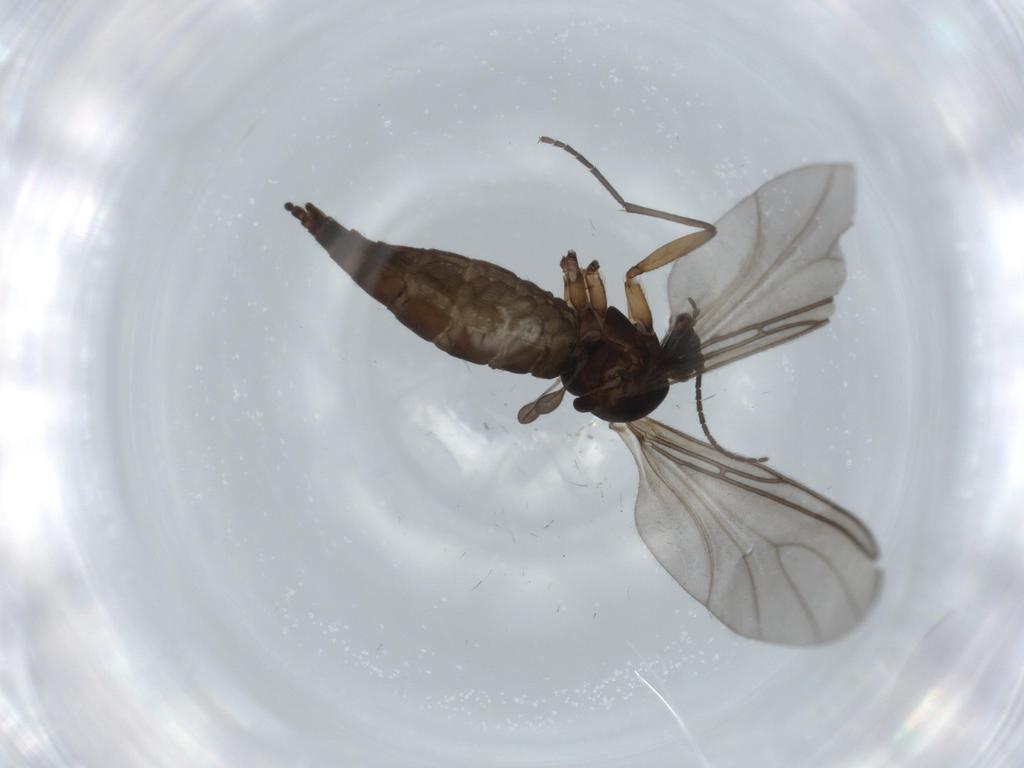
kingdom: Animalia
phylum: Arthropoda
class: Insecta
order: Diptera
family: Sciaridae
